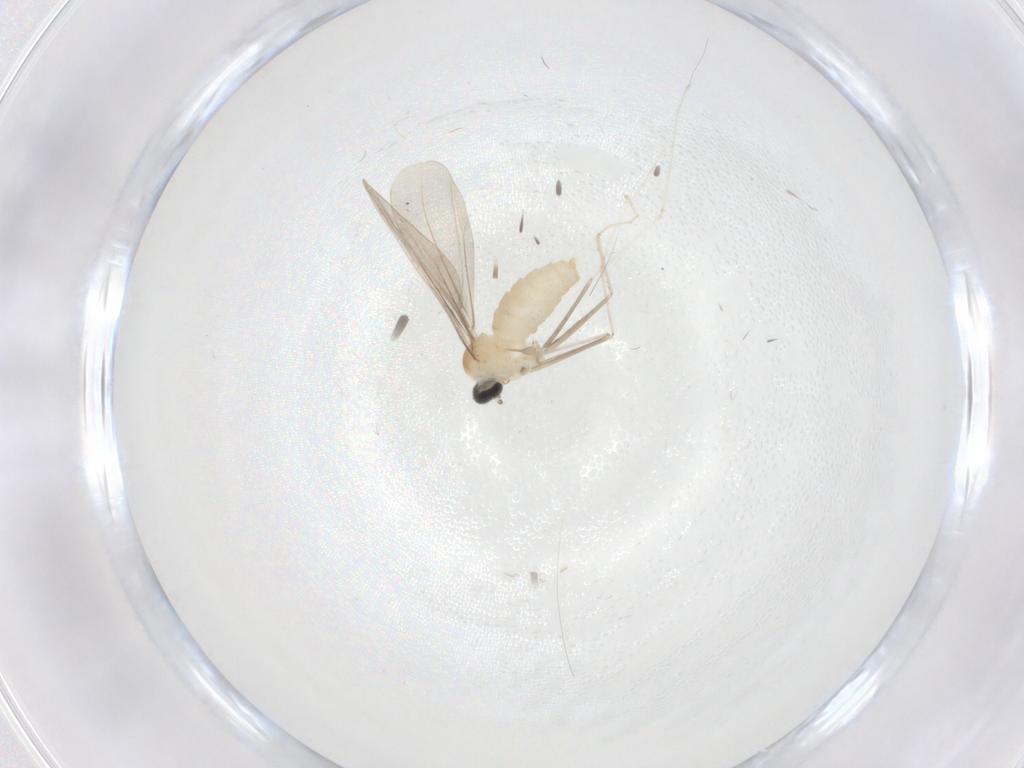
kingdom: Animalia
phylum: Arthropoda
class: Insecta
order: Diptera
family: Cecidomyiidae
